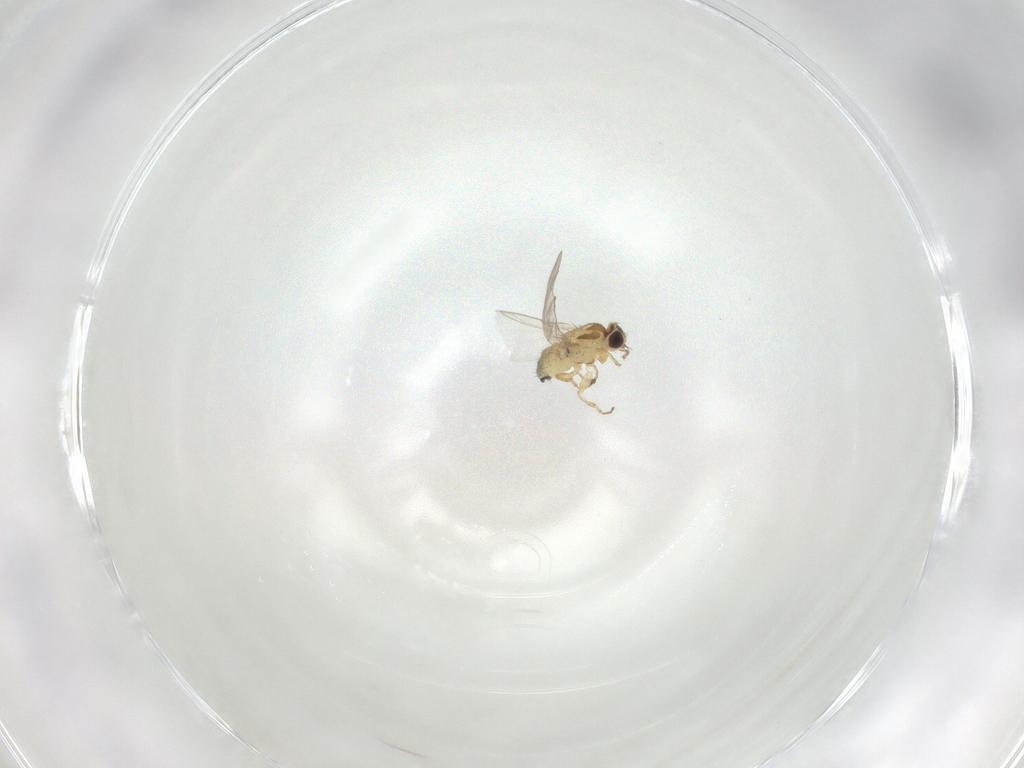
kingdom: Animalia
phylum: Arthropoda
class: Insecta
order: Diptera
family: Agromyzidae
